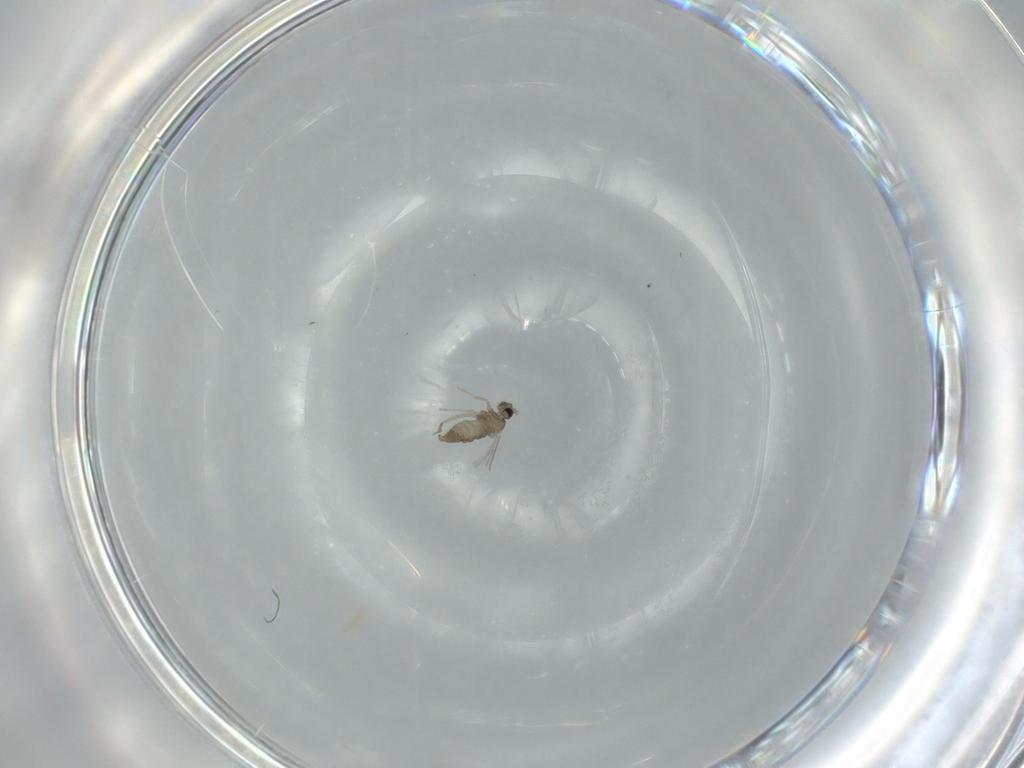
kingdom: Animalia
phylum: Arthropoda
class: Insecta
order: Diptera
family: Cecidomyiidae
